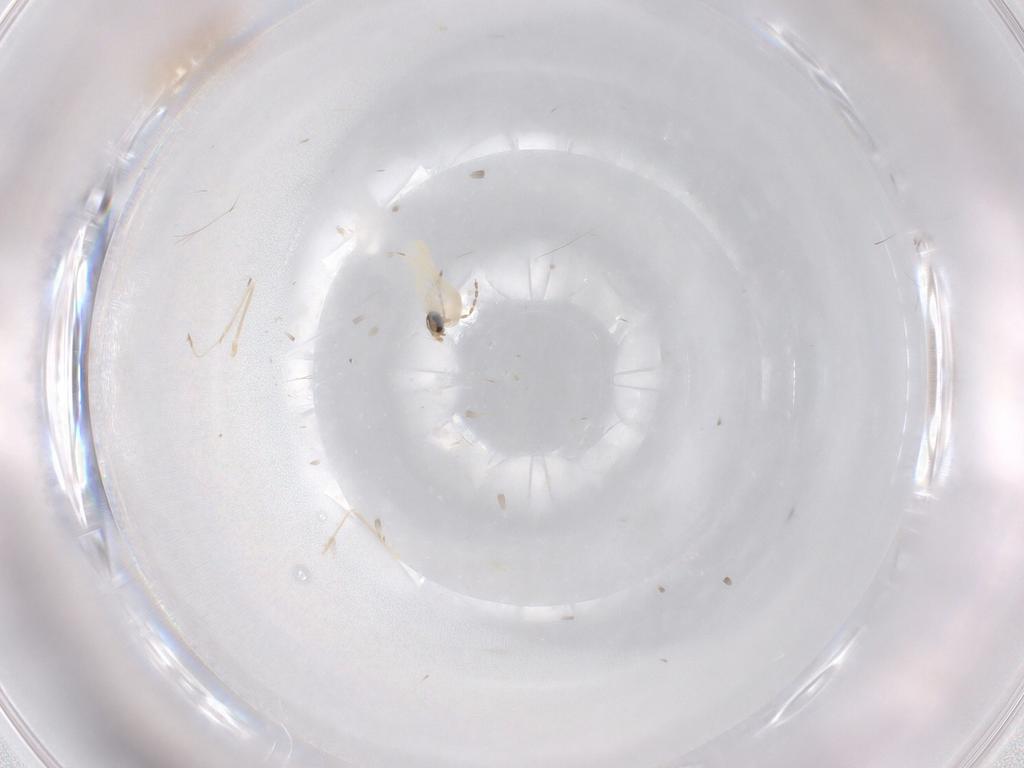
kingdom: Animalia
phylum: Arthropoda
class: Insecta
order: Diptera
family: Cecidomyiidae
